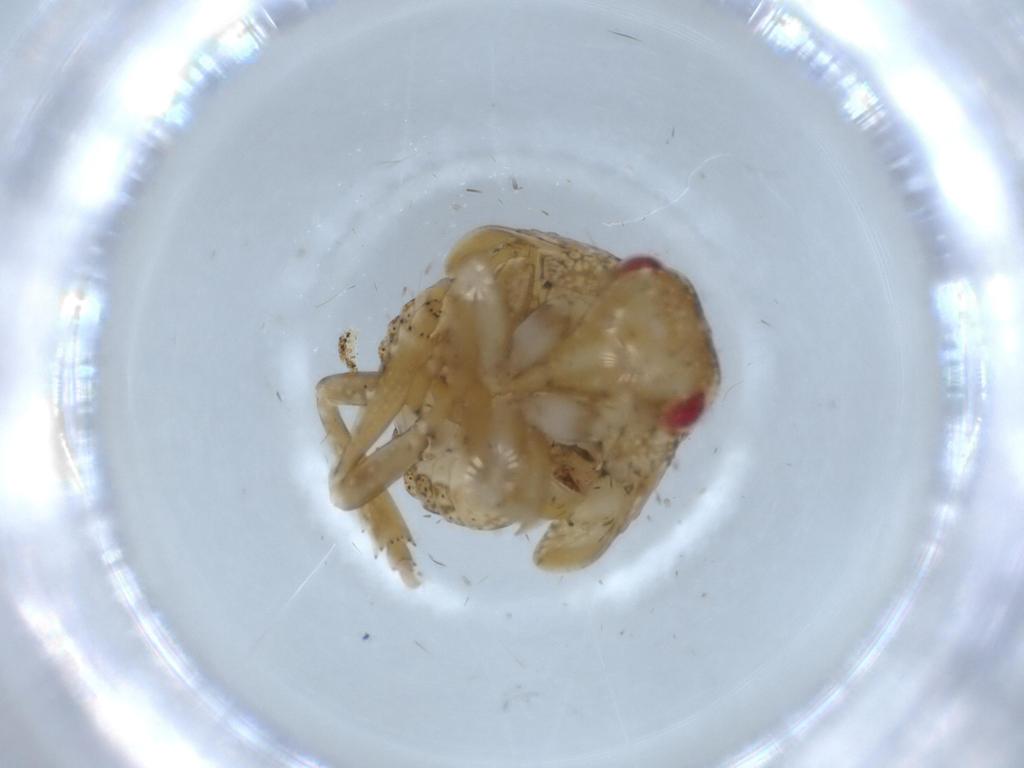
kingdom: Animalia
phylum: Arthropoda
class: Insecta
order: Hemiptera
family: Acanaloniidae
